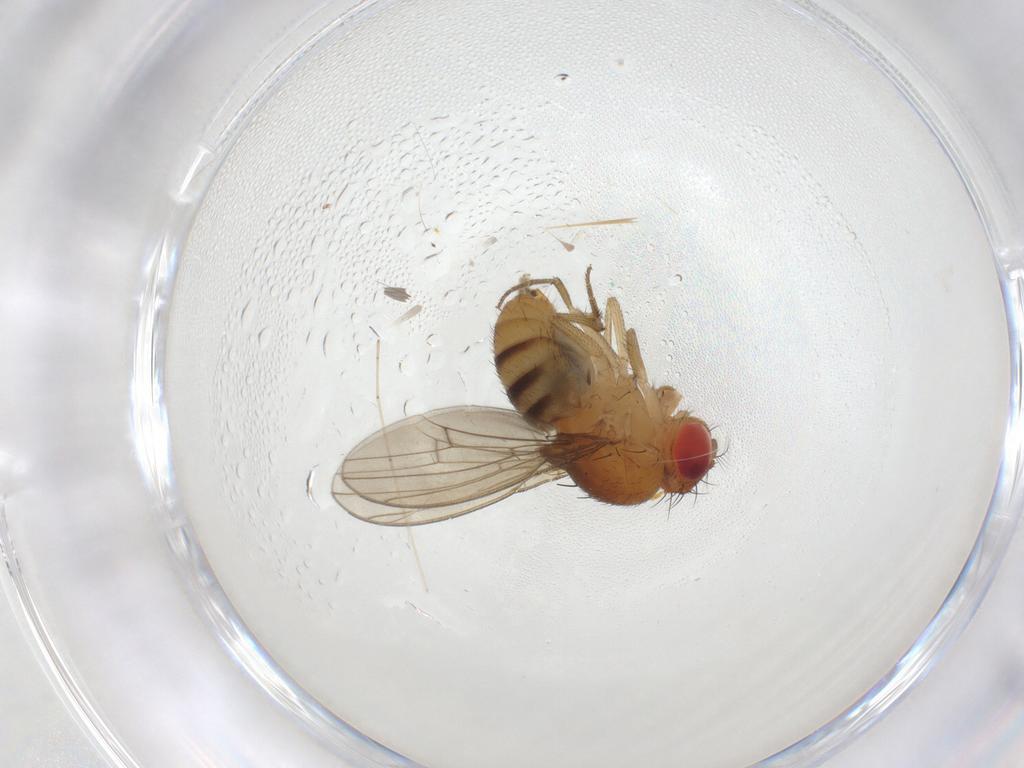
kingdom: Animalia
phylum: Arthropoda
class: Insecta
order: Diptera
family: Drosophilidae
